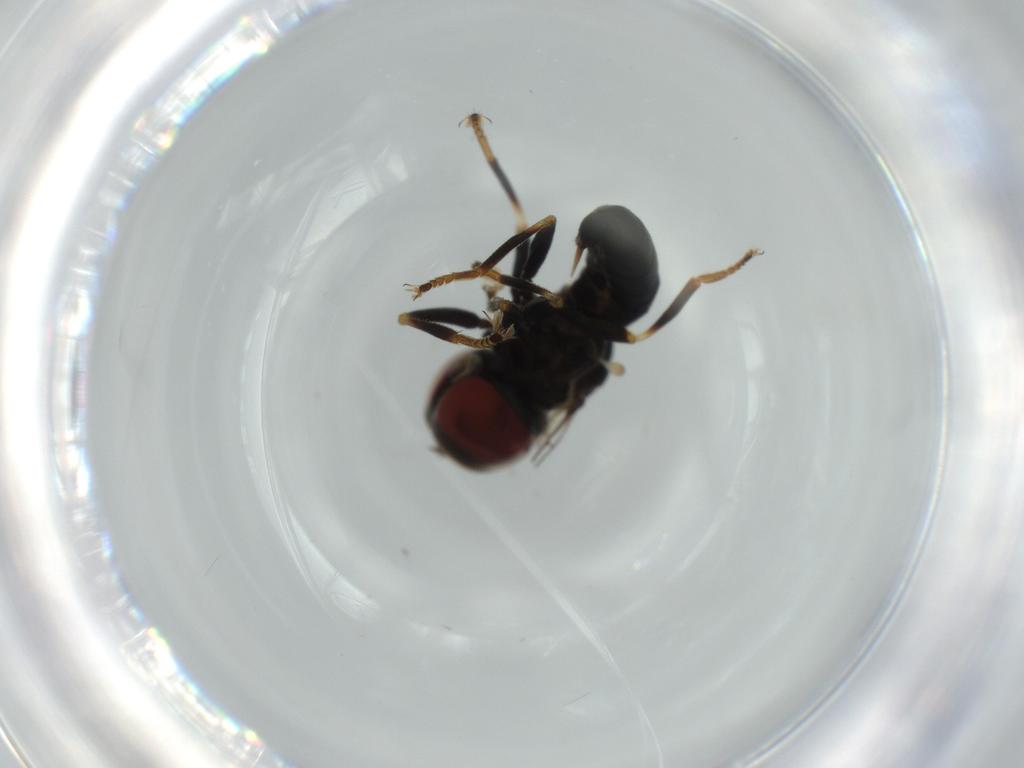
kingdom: Animalia
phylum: Arthropoda
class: Insecta
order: Diptera
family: Pipunculidae
